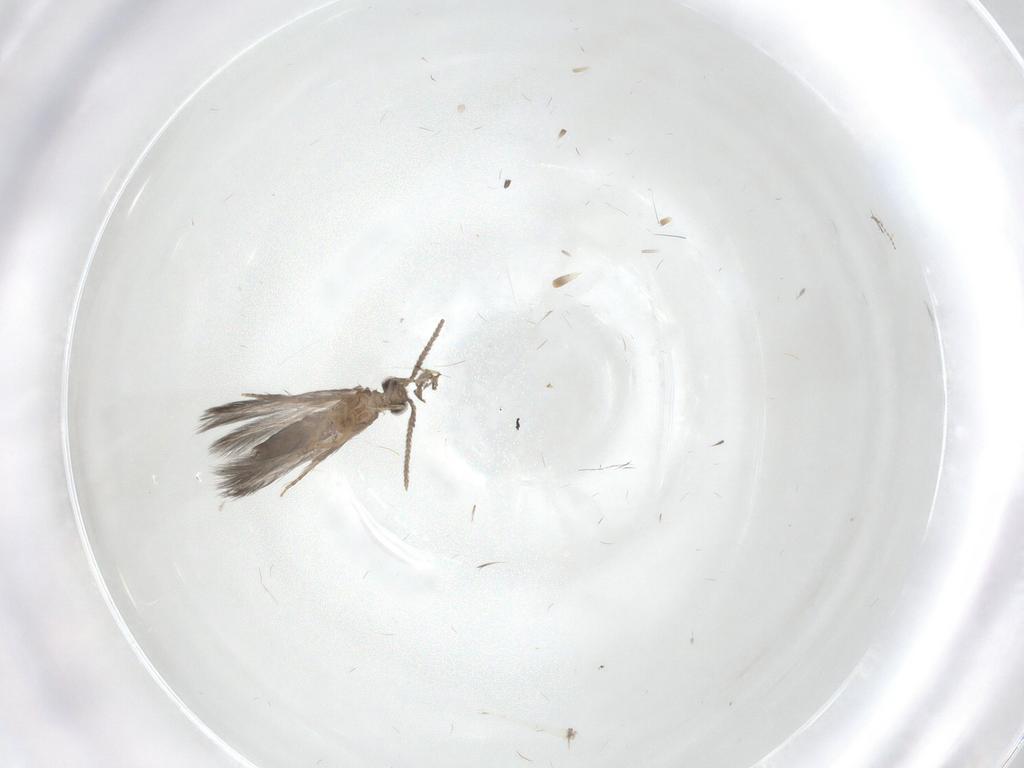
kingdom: Animalia
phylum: Arthropoda
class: Insecta
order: Trichoptera
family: Hydroptilidae
